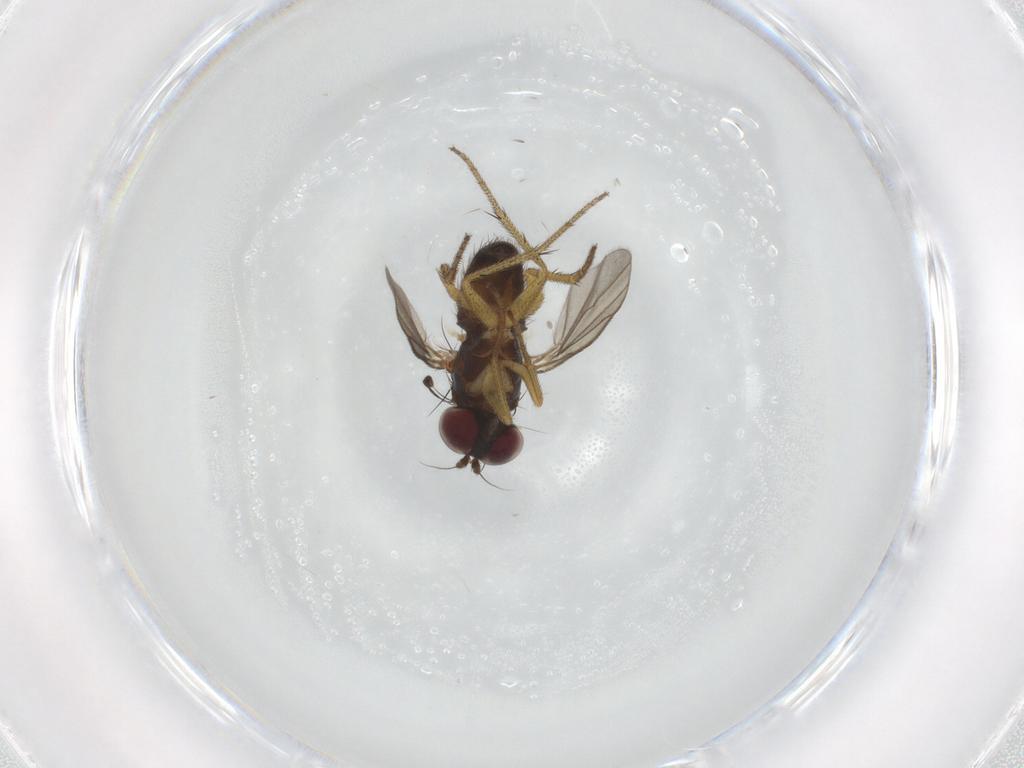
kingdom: Animalia
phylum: Arthropoda
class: Insecta
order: Diptera
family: Dolichopodidae
